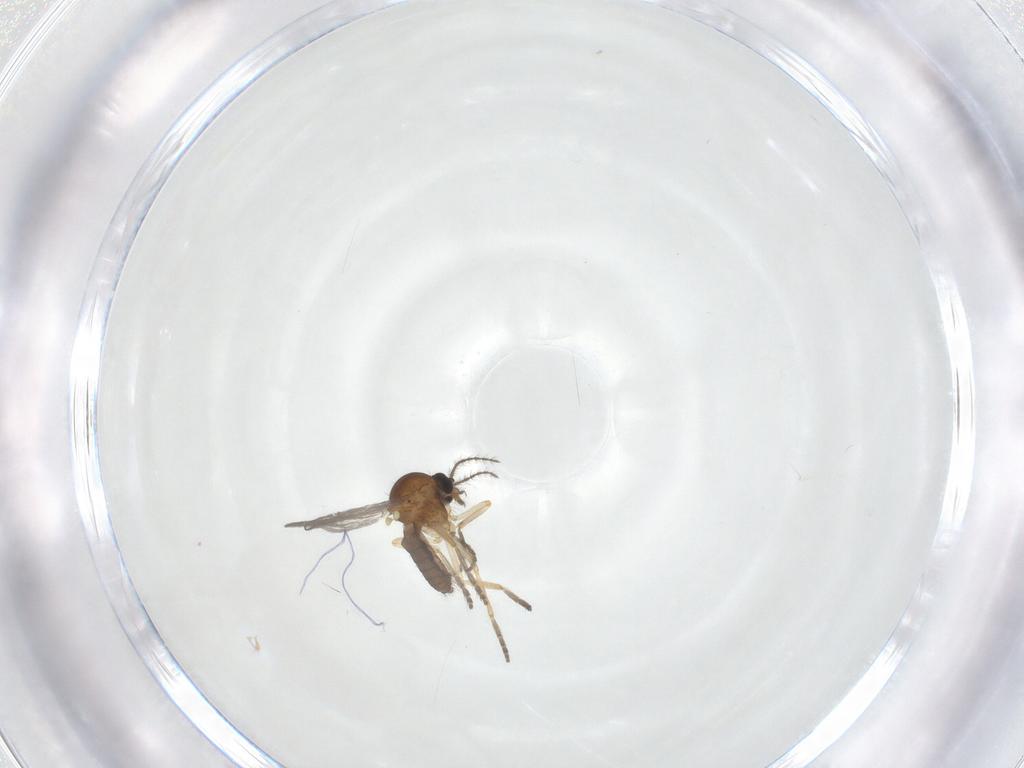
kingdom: Animalia
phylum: Arthropoda
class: Insecta
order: Diptera
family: Ceratopogonidae
